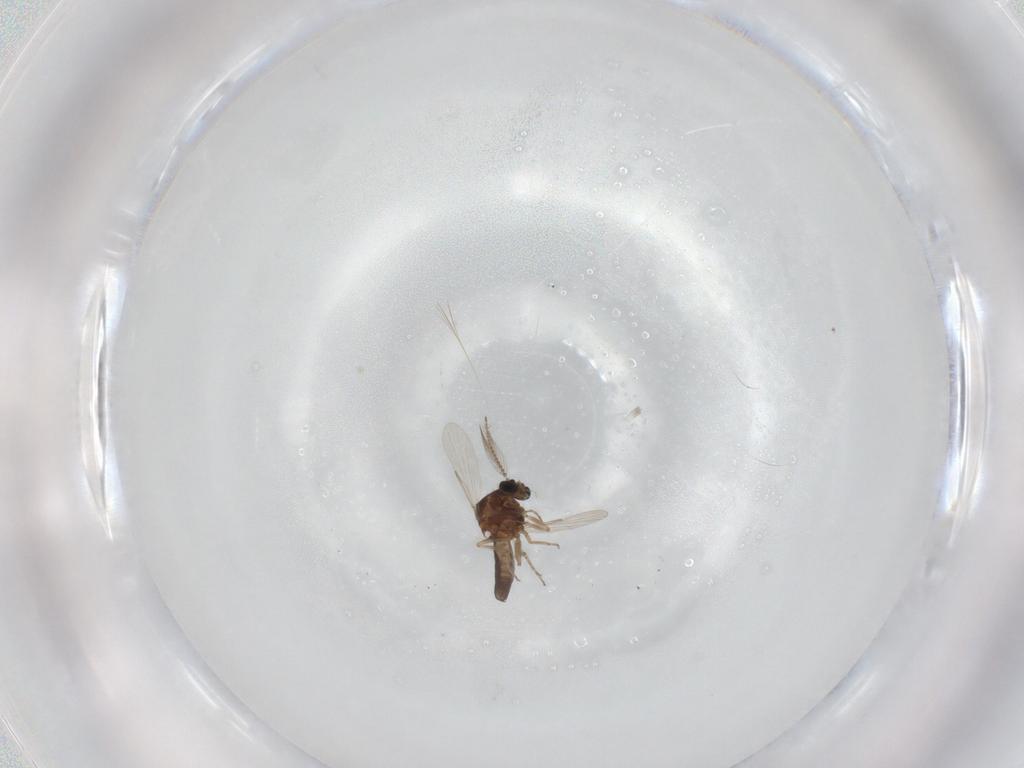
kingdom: Animalia
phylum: Arthropoda
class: Insecta
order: Diptera
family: Ceratopogonidae
